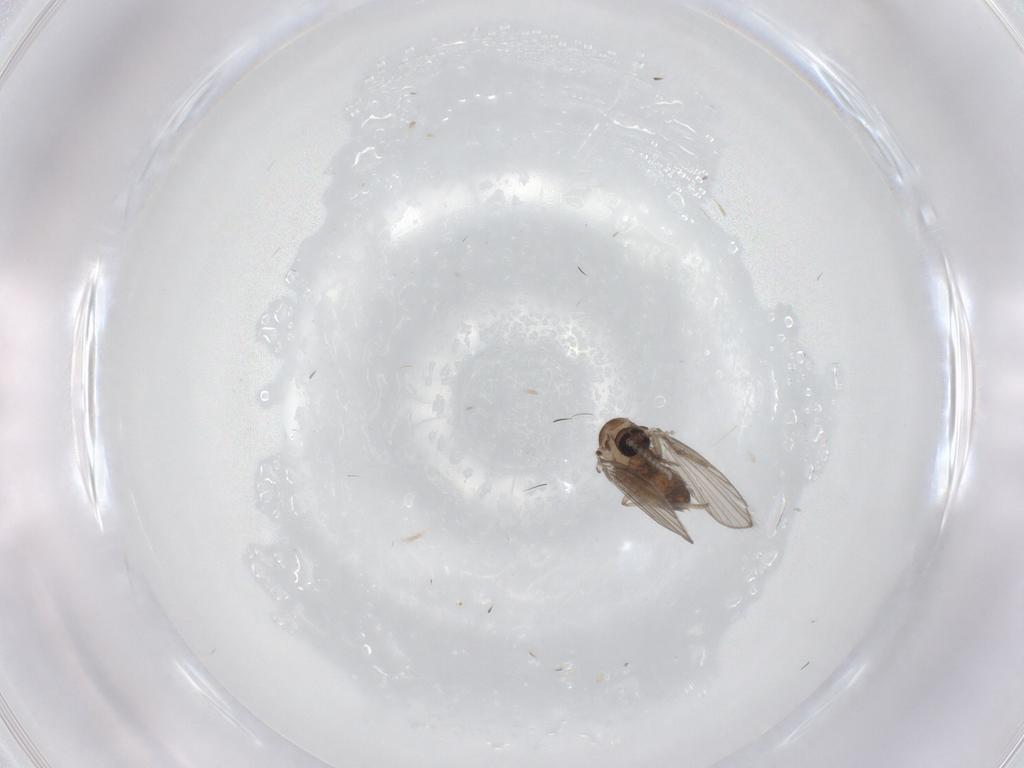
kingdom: Animalia
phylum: Arthropoda
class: Insecta
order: Diptera
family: Psychodidae
